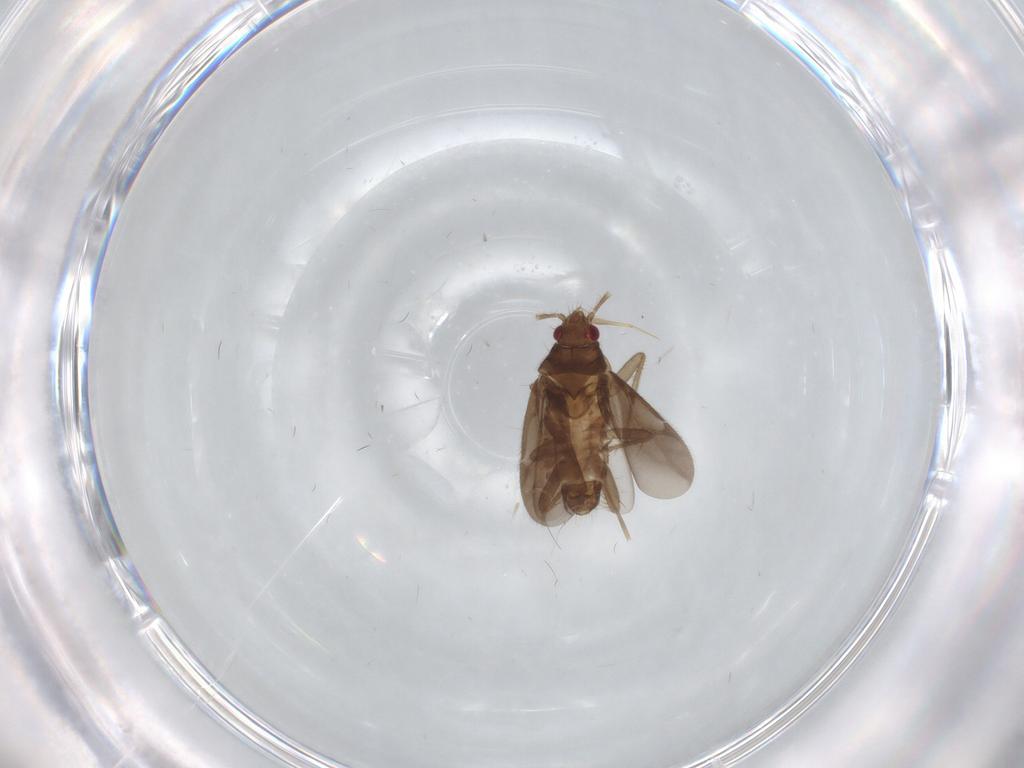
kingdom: Animalia
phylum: Arthropoda
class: Insecta
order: Hemiptera
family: Ceratocombidae
